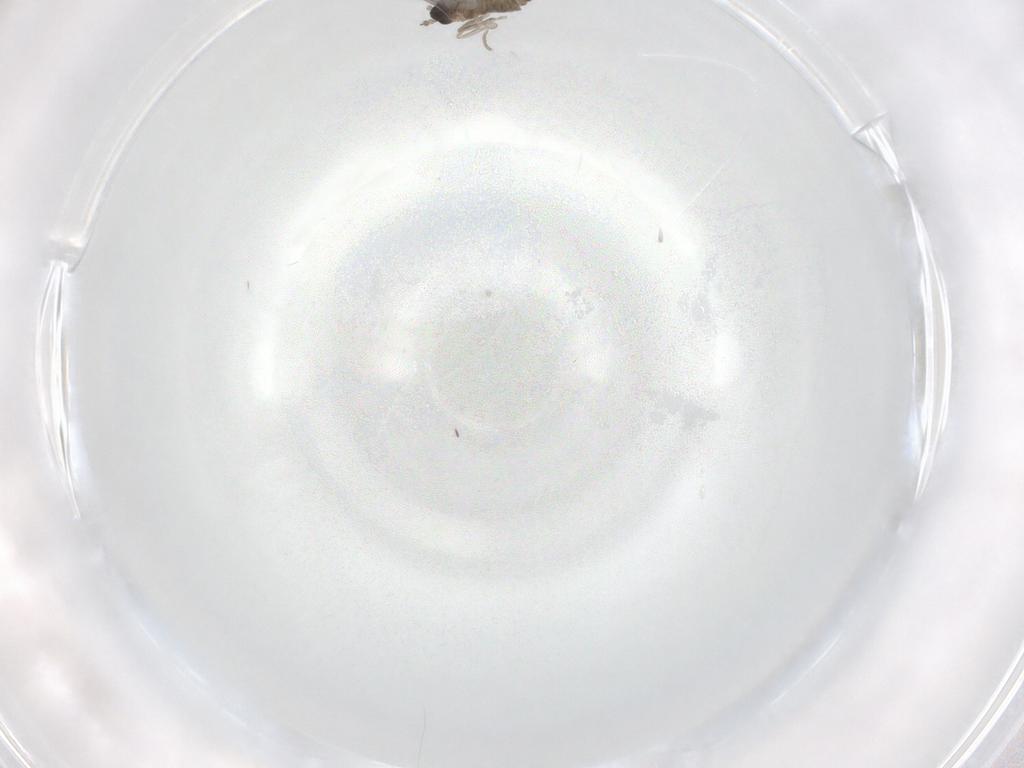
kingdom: Animalia
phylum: Arthropoda
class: Insecta
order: Diptera
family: Cecidomyiidae
